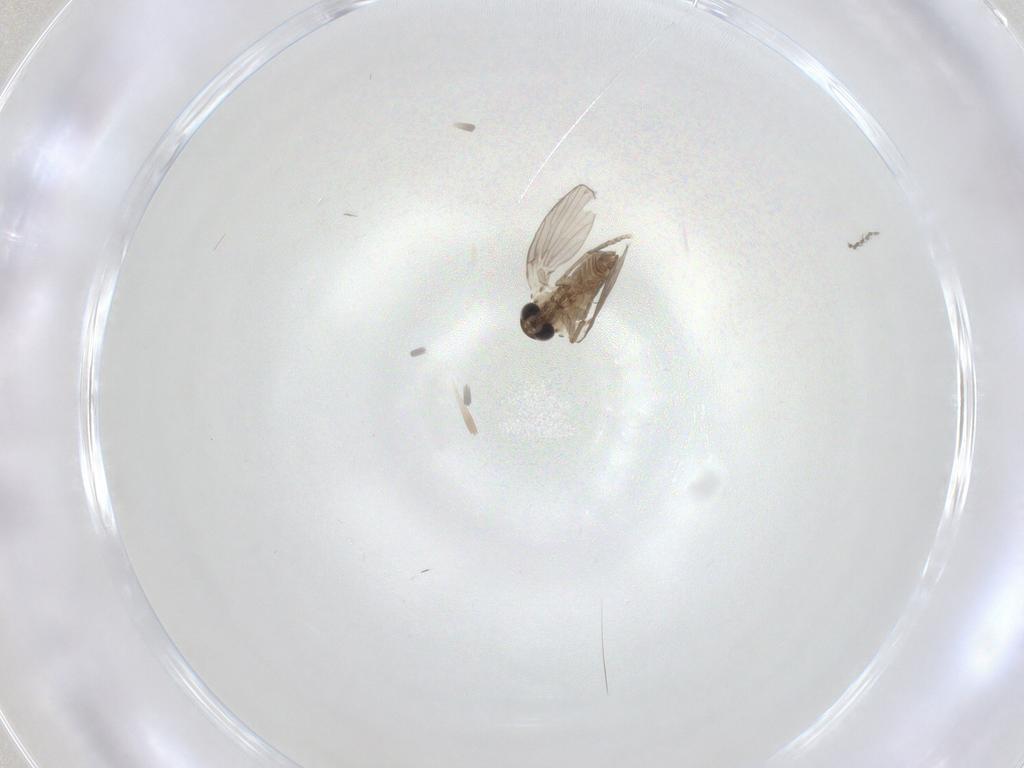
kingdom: Animalia
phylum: Arthropoda
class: Insecta
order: Diptera
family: Psychodidae
